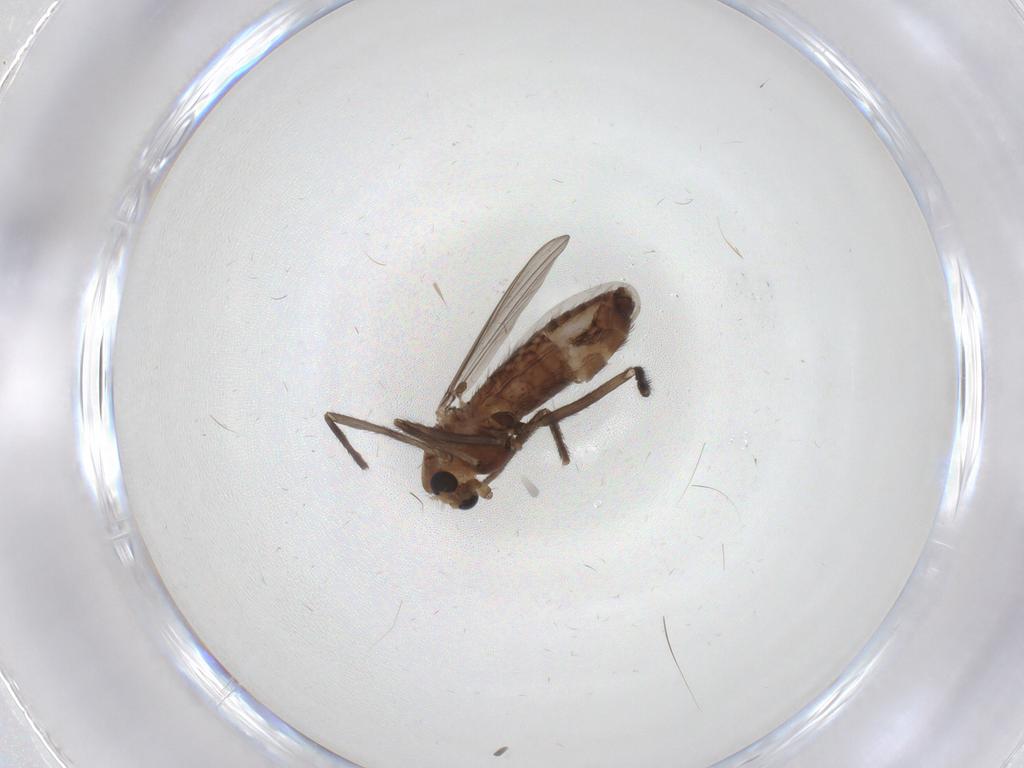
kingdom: Animalia
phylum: Arthropoda
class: Insecta
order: Diptera
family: Chironomidae
